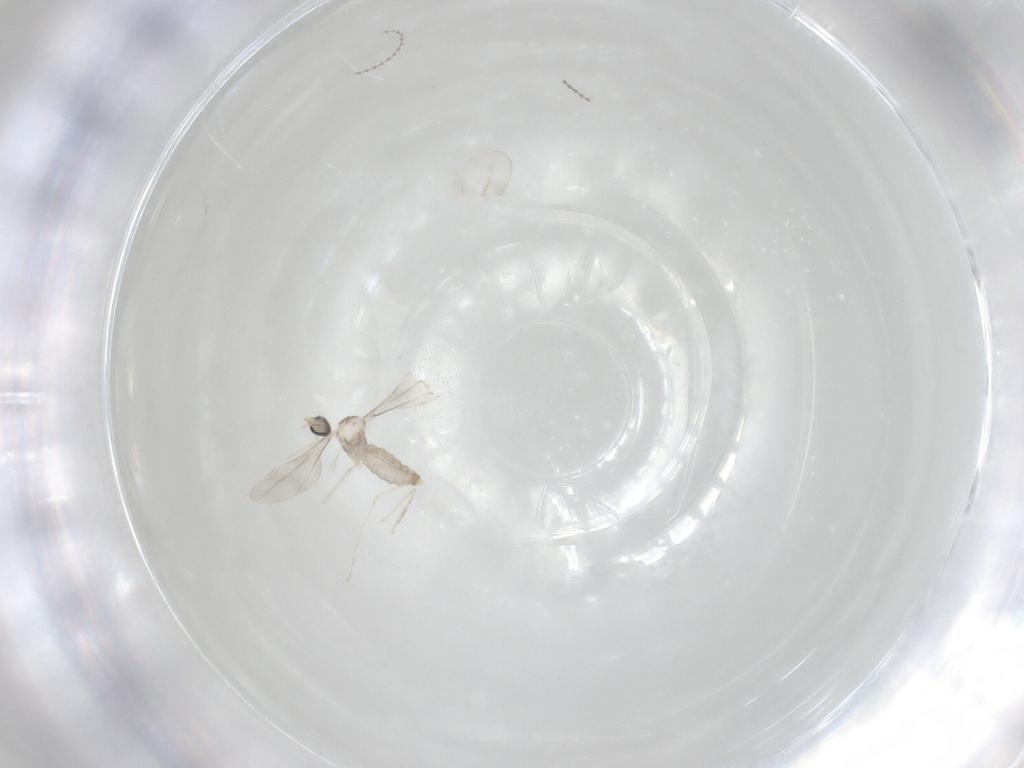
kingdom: Animalia
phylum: Arthropoda
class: Insecta
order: Diptera
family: Cecidomyiidae
